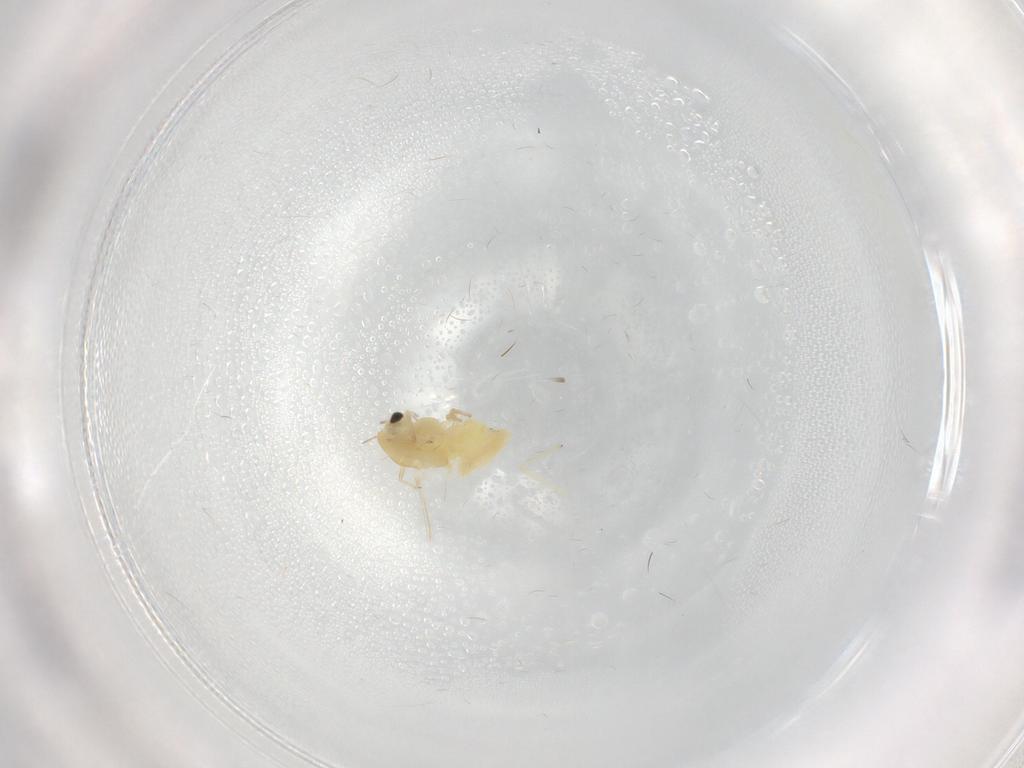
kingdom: Animalia
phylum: Arthropoda
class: Insecta
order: Diptera
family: Chironomidae
